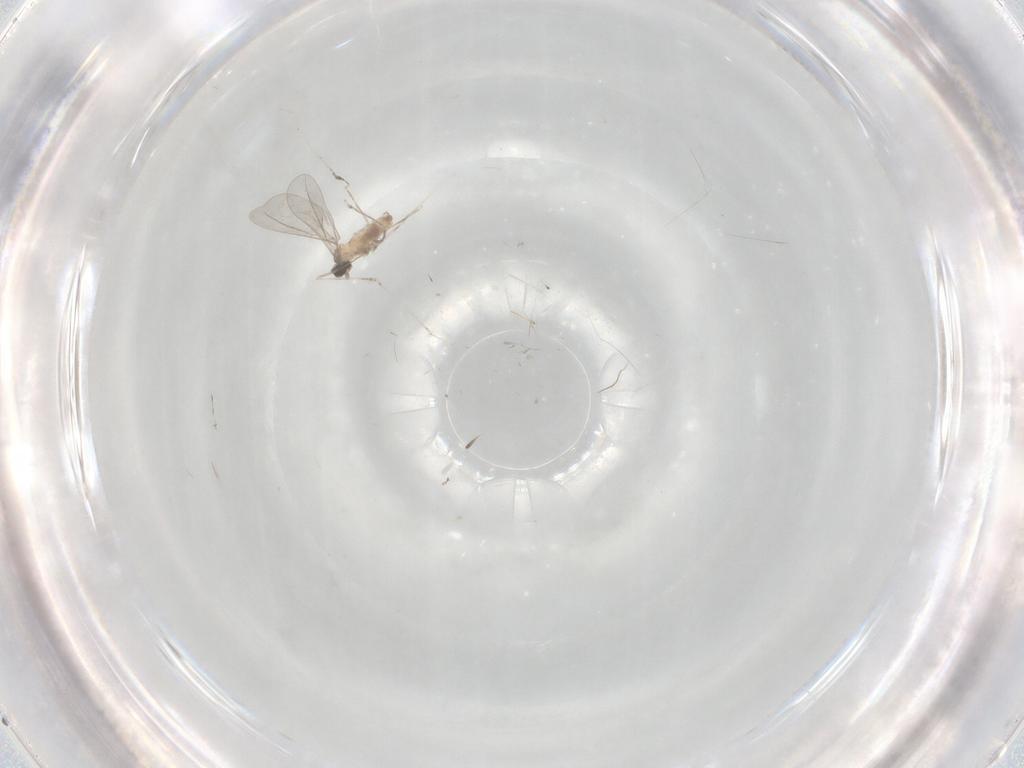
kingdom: Animalia
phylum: Arthropoda
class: Insecta
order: Diptera
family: Cecidomyiidae
